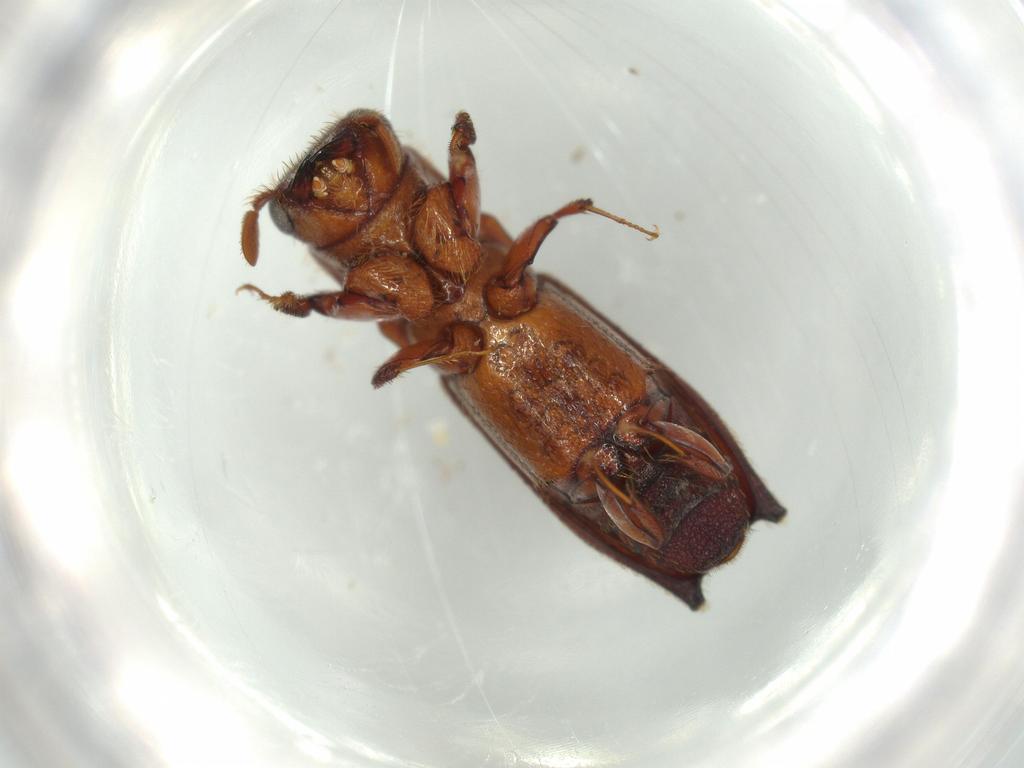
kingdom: Animalia
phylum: Arthropoda
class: Insecta
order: Coleoptera
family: Curculionidae
